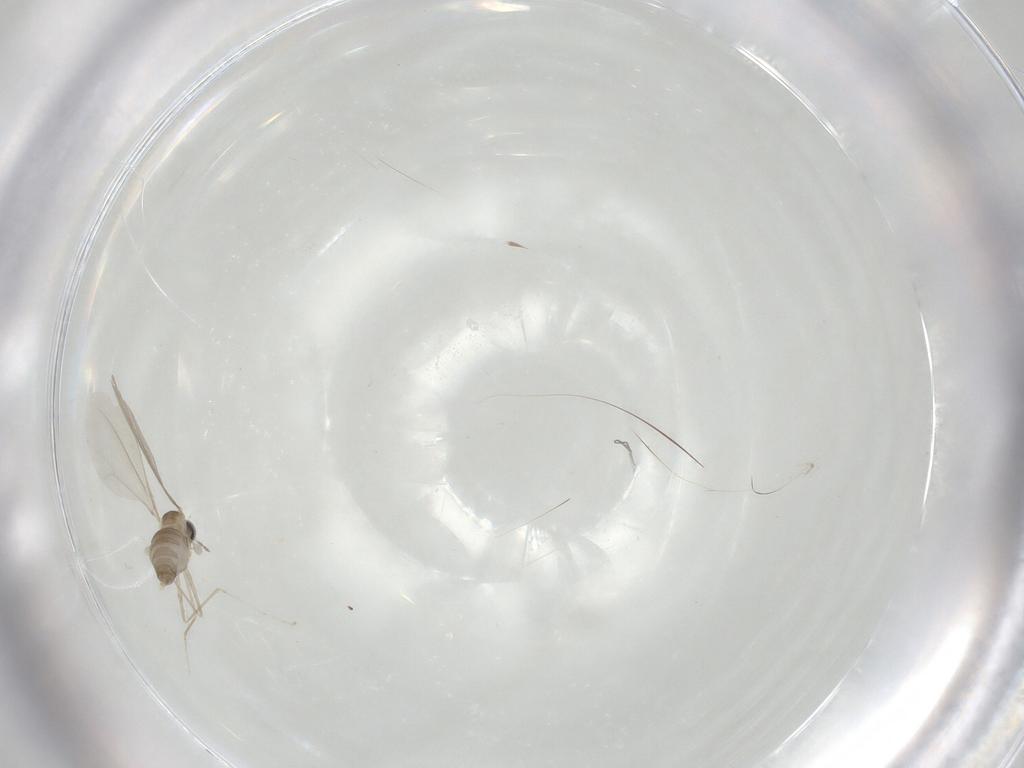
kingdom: Animalia
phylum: Arthropoda
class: Insecta
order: Diptera
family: Cecidomyiidae
